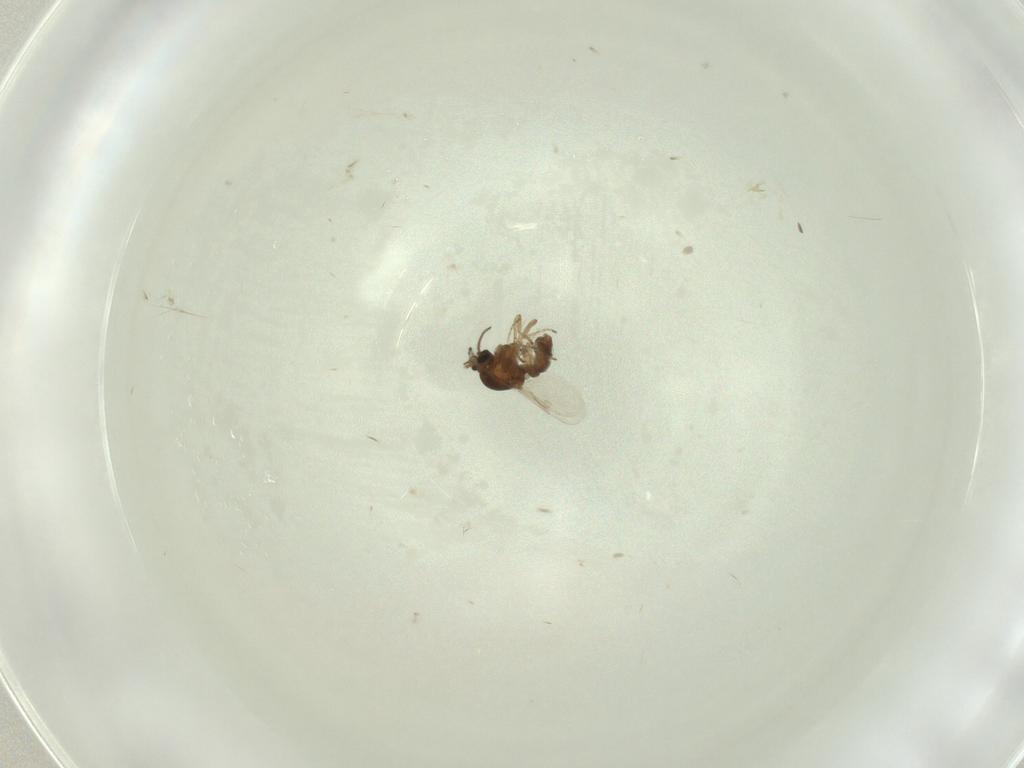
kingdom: Animalia
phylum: Arthropoda
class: Insecta
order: Diptera
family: Sciaridae
